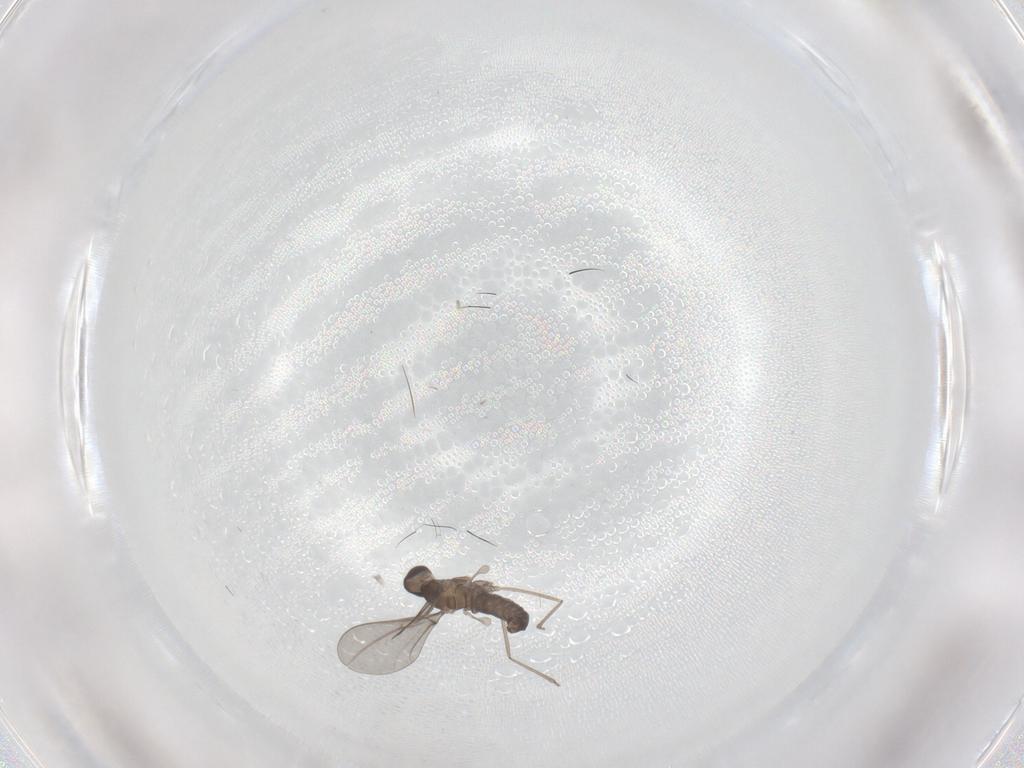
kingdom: Animalia
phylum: Arthropoda
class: Insecta
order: Diptera
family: Cecidomyiidae
